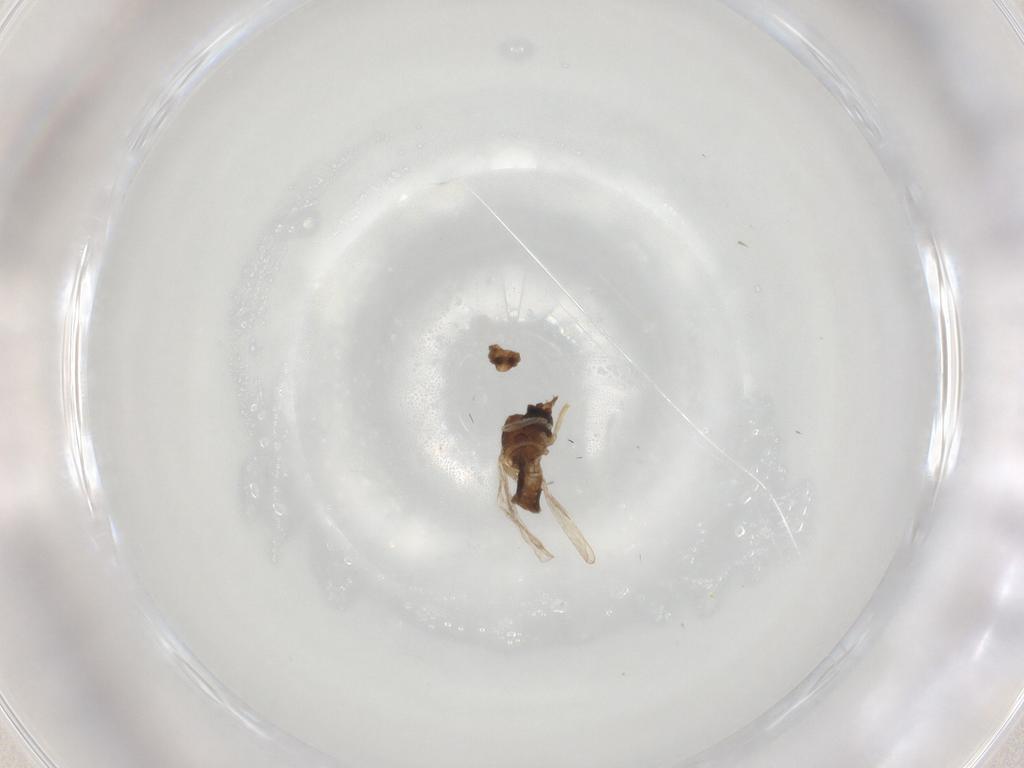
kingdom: Animalia
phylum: Arthropoda
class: Insecta
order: Diptera
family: Ceratopogonidae
